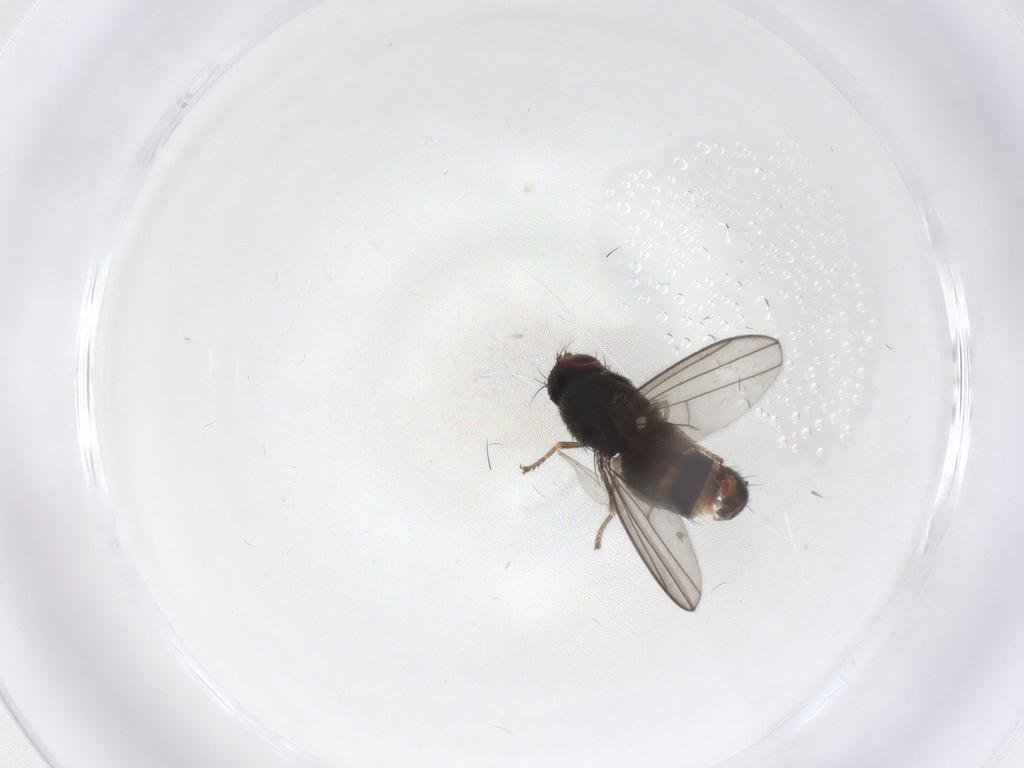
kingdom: Animalia
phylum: Arthropoda
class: Insecta
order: Diptera
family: Ephydridae
